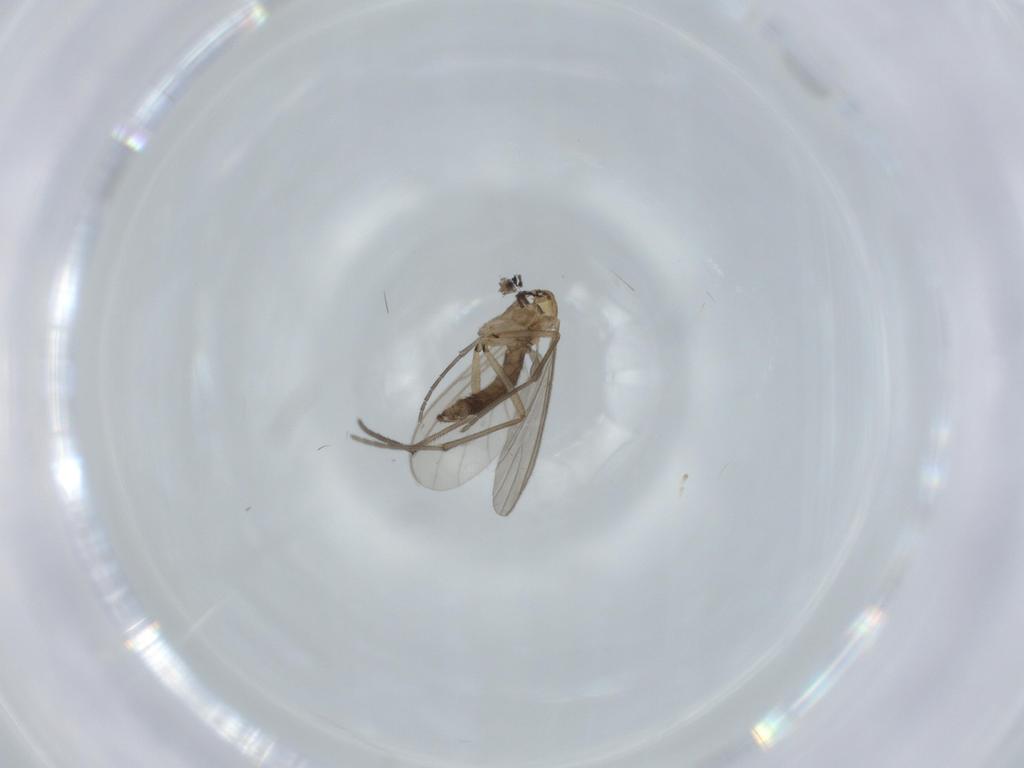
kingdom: Animalia
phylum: Arthropoda
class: Insecta
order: Diptera
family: Sciaridae
